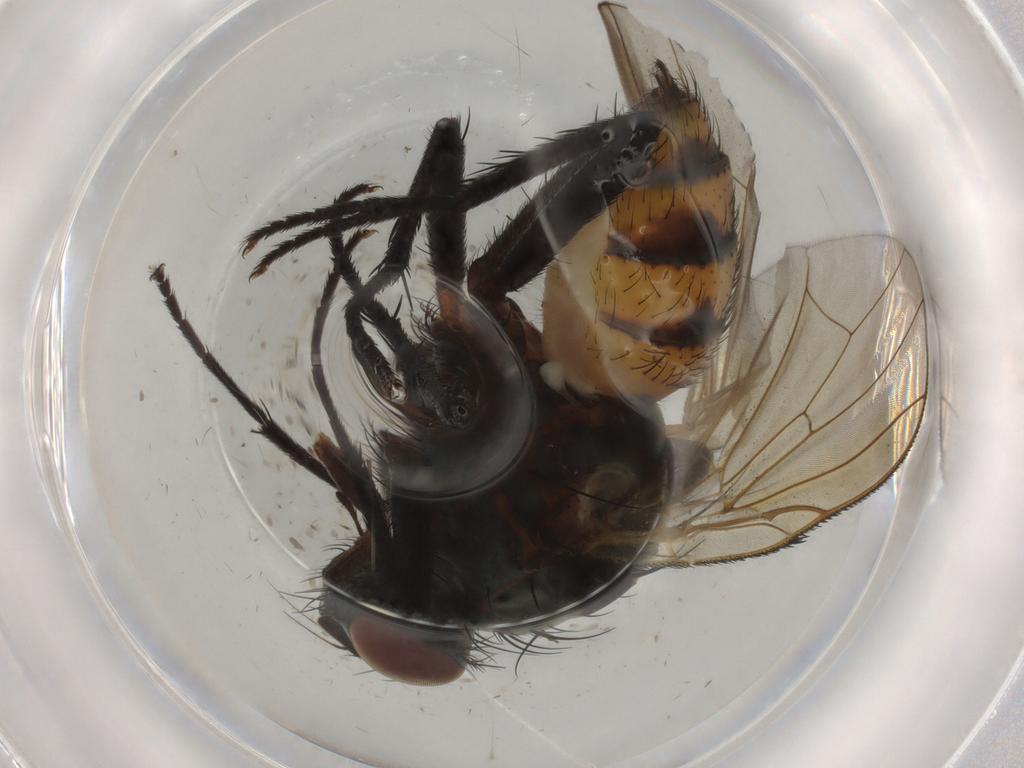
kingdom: Animalia
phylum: Arthropoda
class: Insecta
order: Diptera
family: Anthomyiidae
